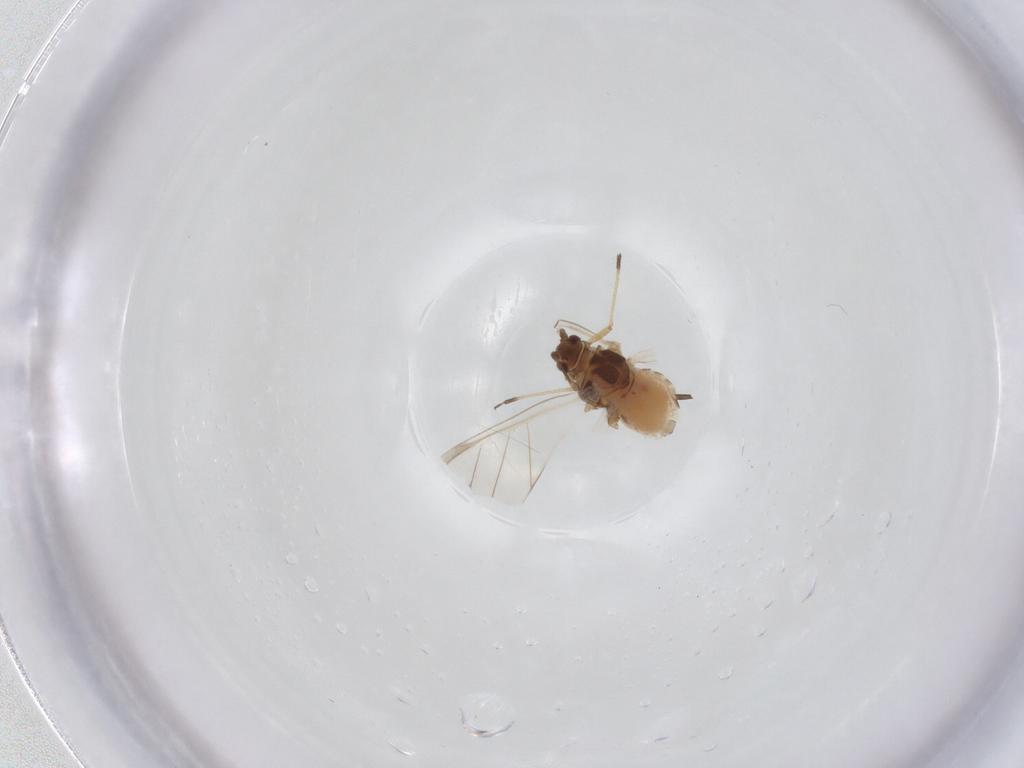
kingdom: Animalia
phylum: Arthropoda
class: Insecta
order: Hemiptera
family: Aphididae
